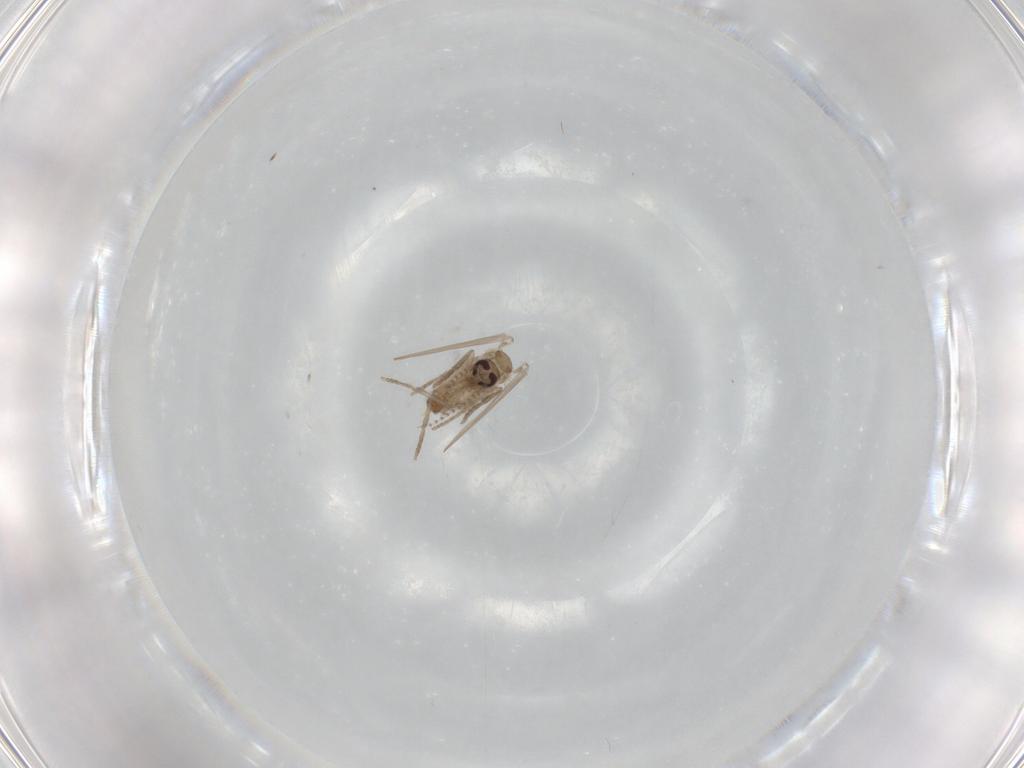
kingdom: Animalia
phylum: Arthropoda
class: Insecta
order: Diptera
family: Psychodidae
